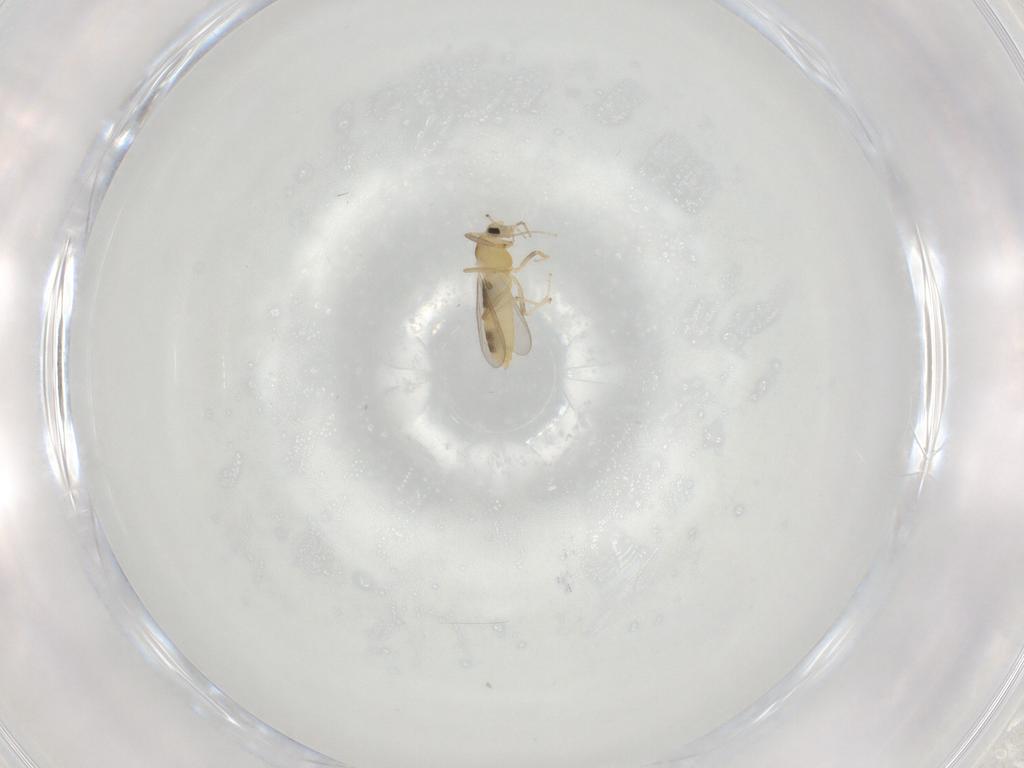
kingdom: Animalia
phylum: Arthropoda
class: Insecta
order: Diptera
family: Chironomidae
